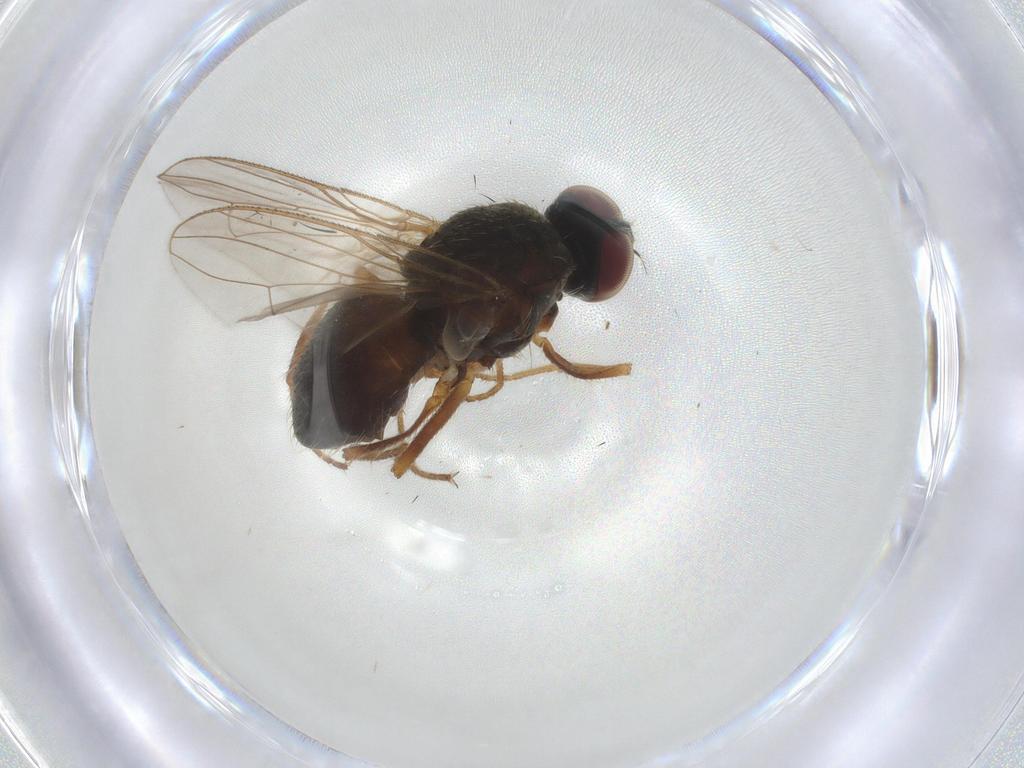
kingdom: Animalia
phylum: Arthropoda
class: Insecta
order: Diptera
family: Muscidae
